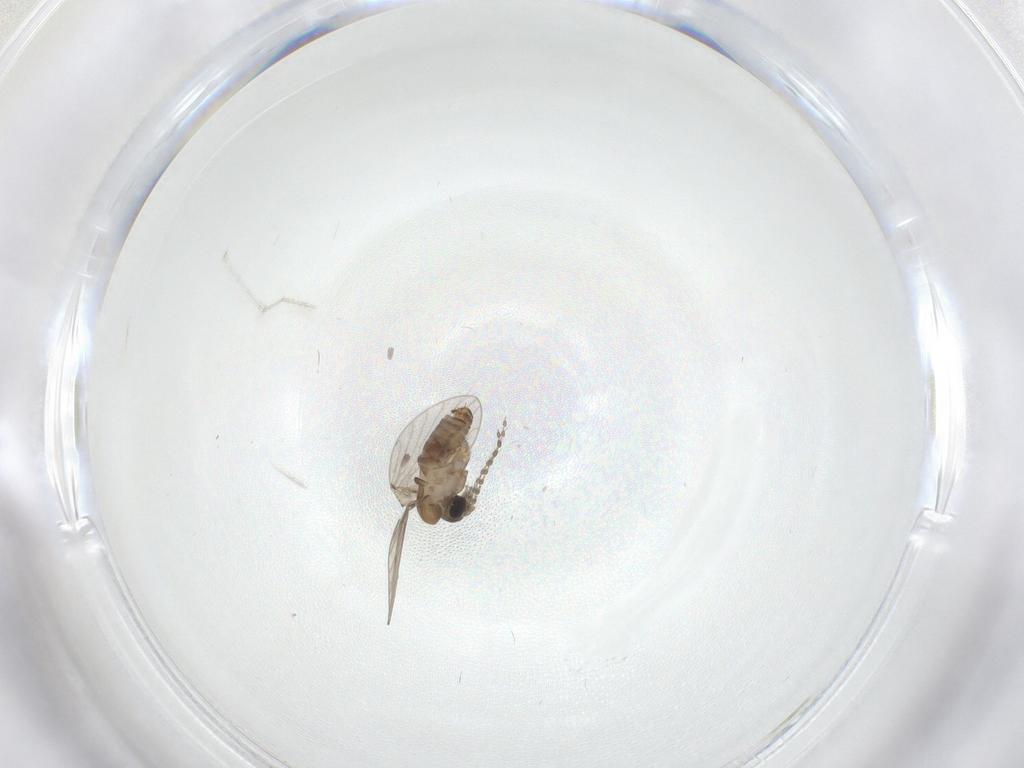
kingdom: Animalia
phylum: Arthropoda
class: Insecta
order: Diptera
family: Psychodidae
